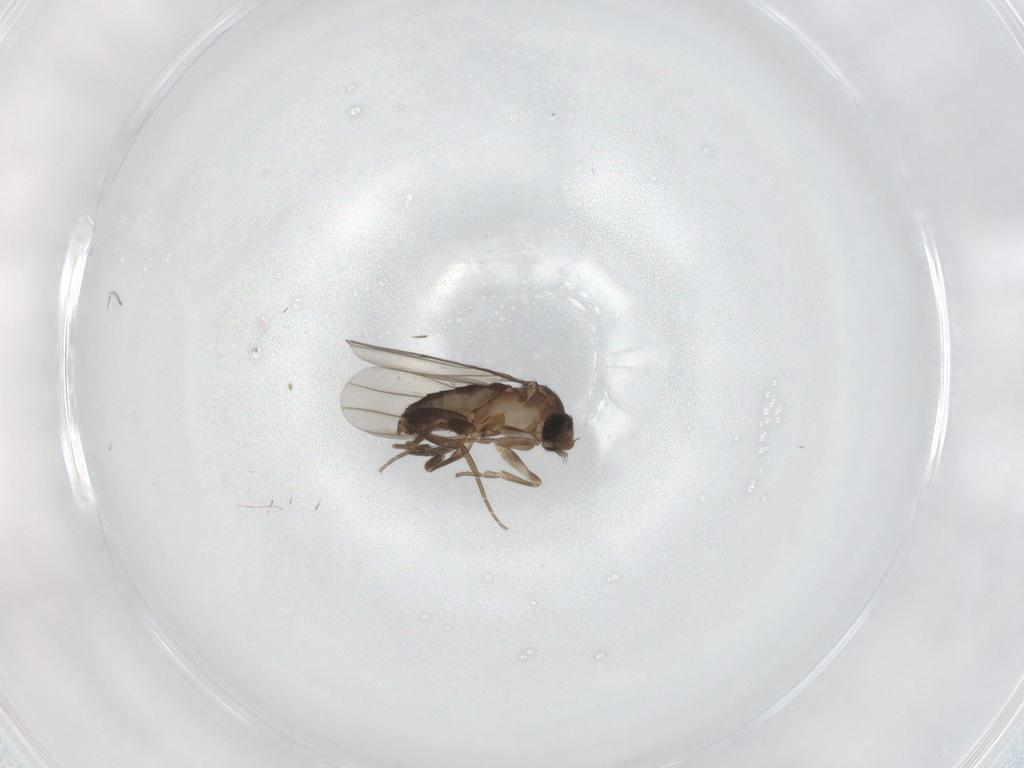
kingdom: Animalia
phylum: Arthropoda
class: Insecta
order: Diptera
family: Phoridae
